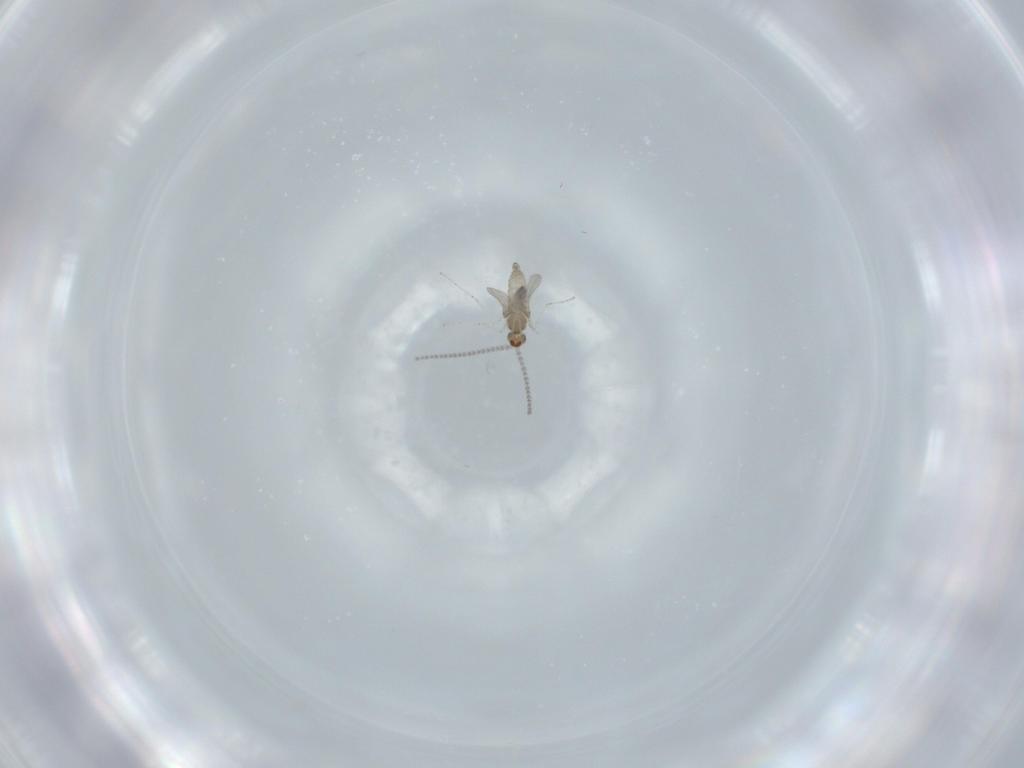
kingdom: Animalia
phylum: Arthropoda
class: Insecta
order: Diptera
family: Cecidomyiidae
